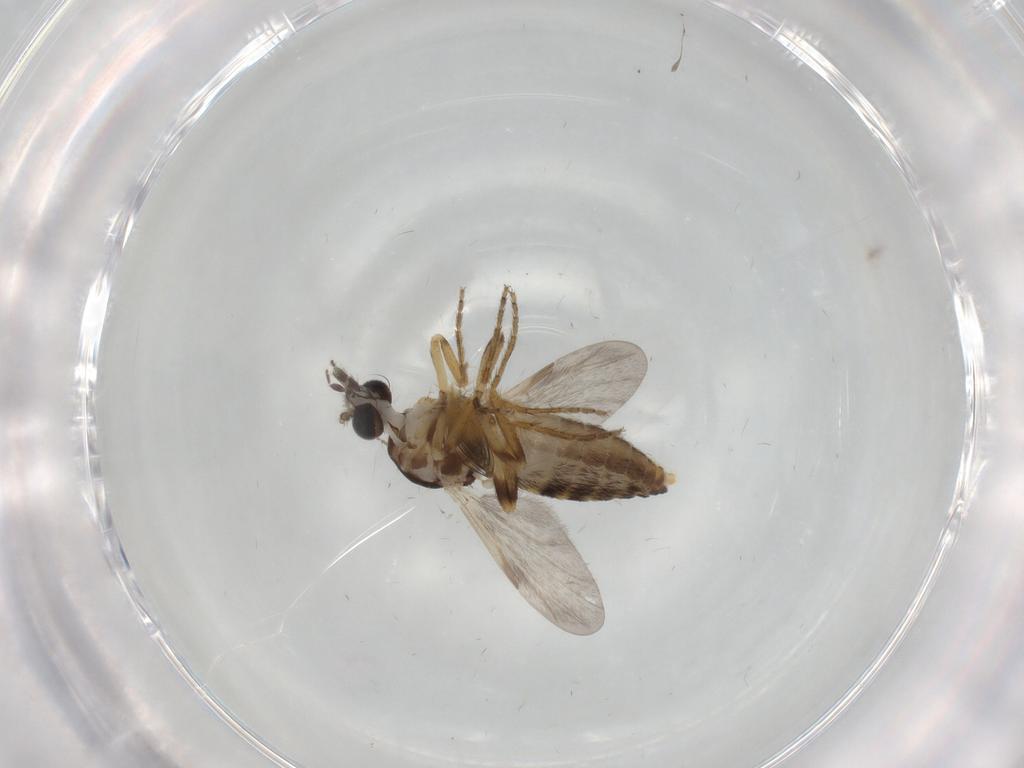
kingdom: Animalia
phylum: Arthropoda
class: Insecta
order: Diptera
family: Ceratopogonidae
